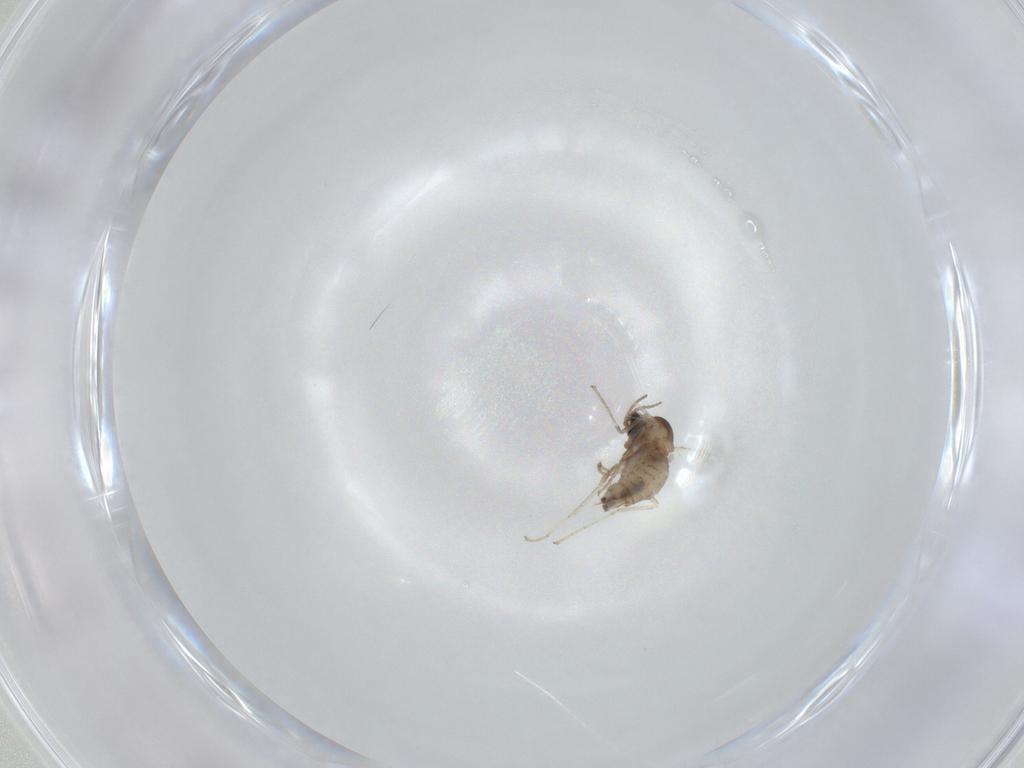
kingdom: Animalia
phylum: Arthropoda
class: Insecta
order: Diptera
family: Cecidomyiidae
